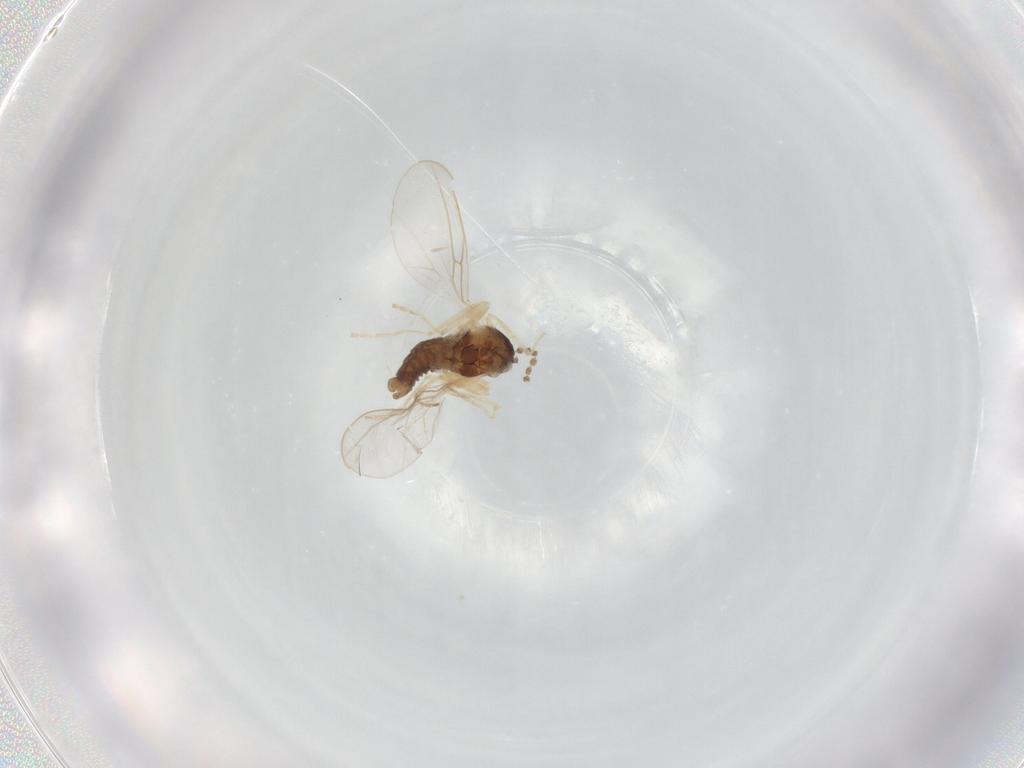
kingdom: Animalia
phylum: Arthropoda
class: Insecta
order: Diptera
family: Cecidomyiidae
